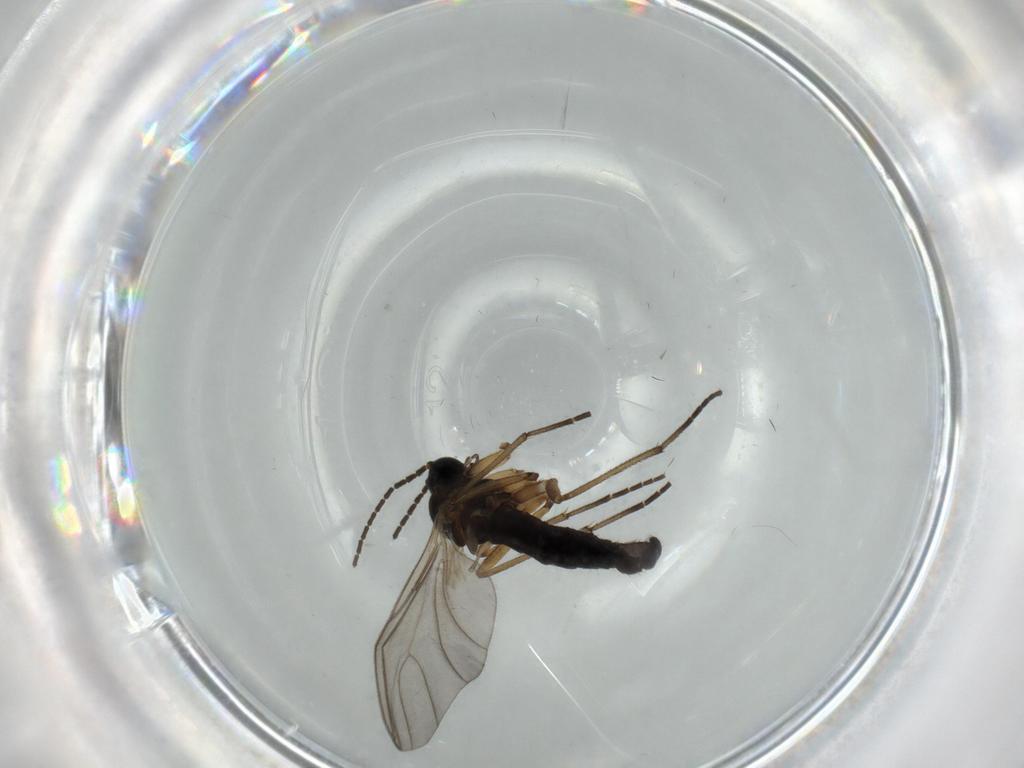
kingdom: Animalia
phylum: Arthropoda
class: Insecta
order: Diptera
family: Sciaridae
